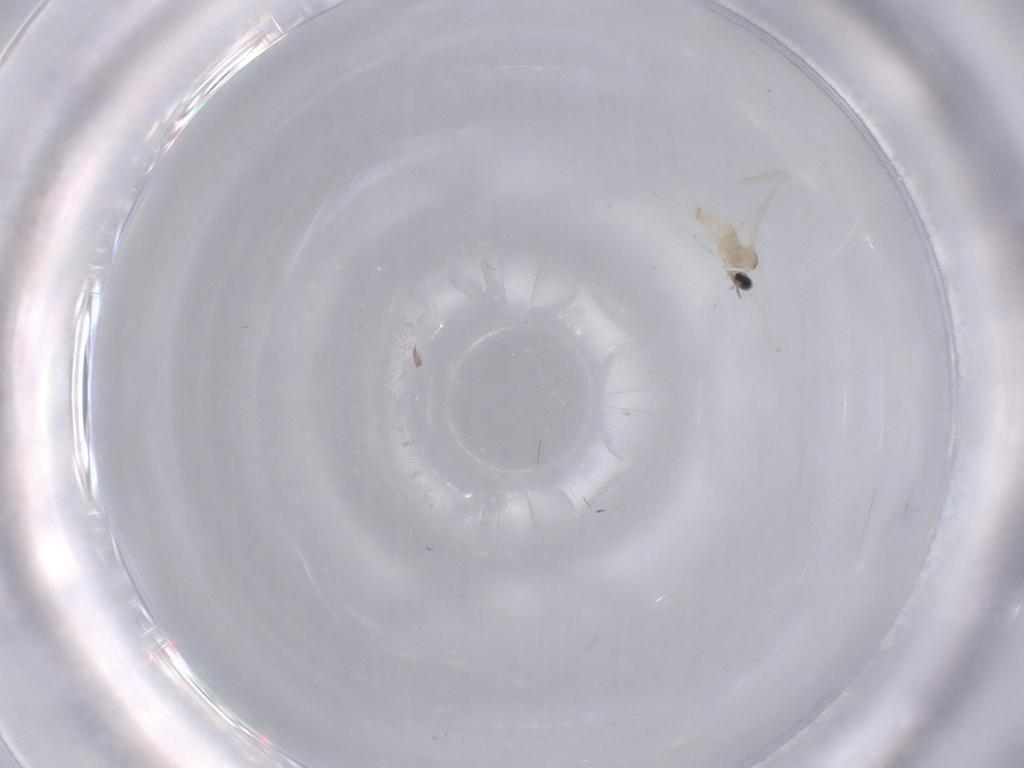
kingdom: Animalia
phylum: Arthropoda
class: Insecta
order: Diptera
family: Cecidomyiidae
